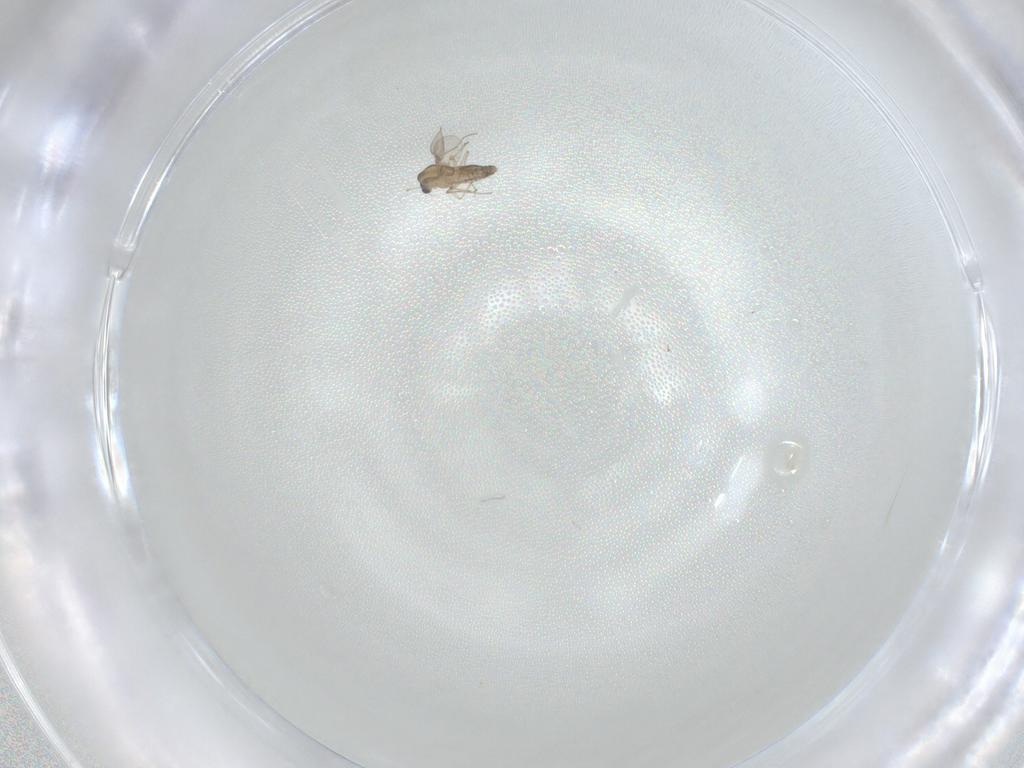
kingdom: Animalia
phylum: Arthropoda
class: Insecta
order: Diptera
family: Chironomidae
